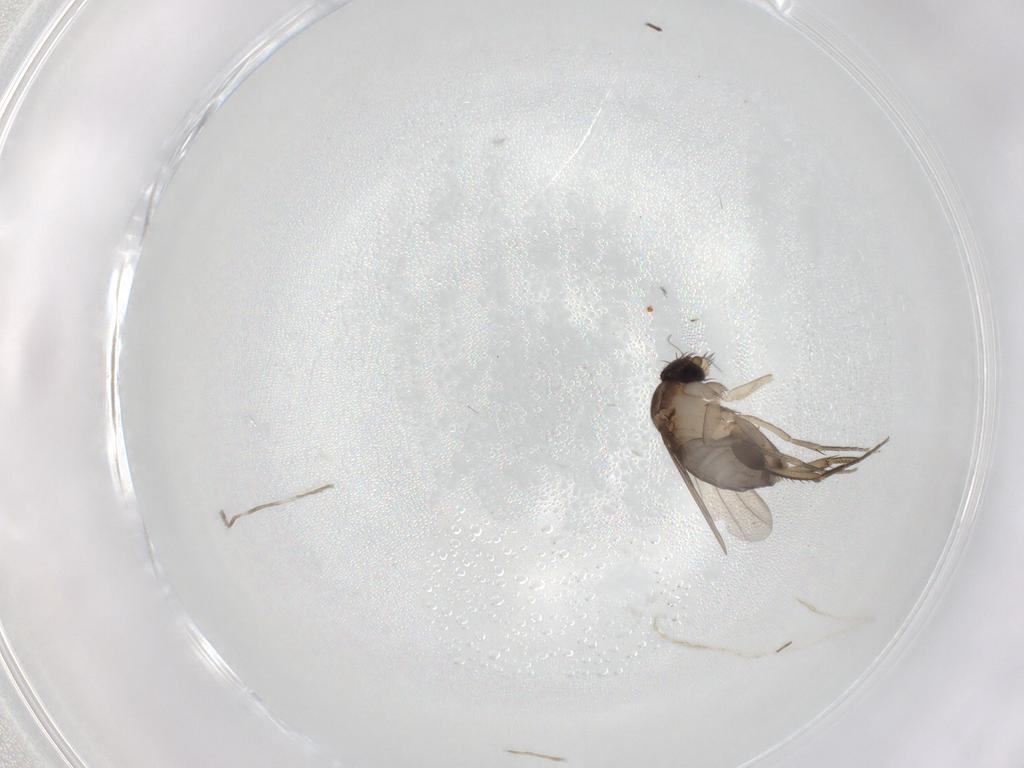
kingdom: Animalia
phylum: Arthropoda
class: Insecta
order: Diptera
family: Phoridae
